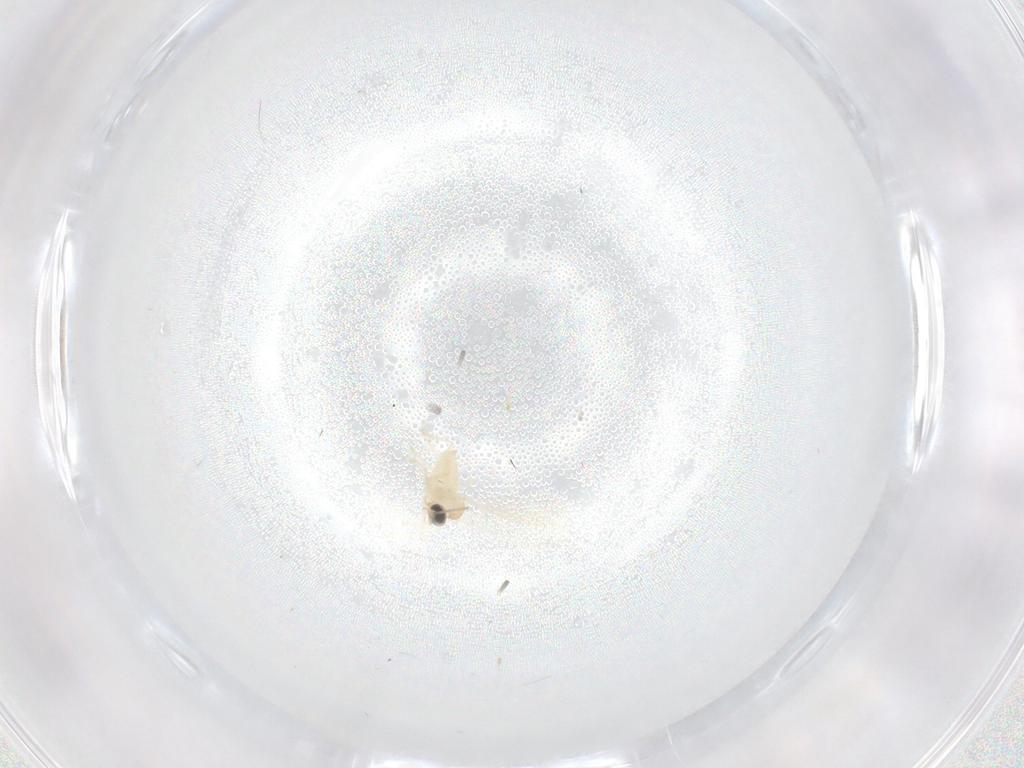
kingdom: Animalia
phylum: Arthropoda
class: Insecta
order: Diptera
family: Cecidomyiidae
